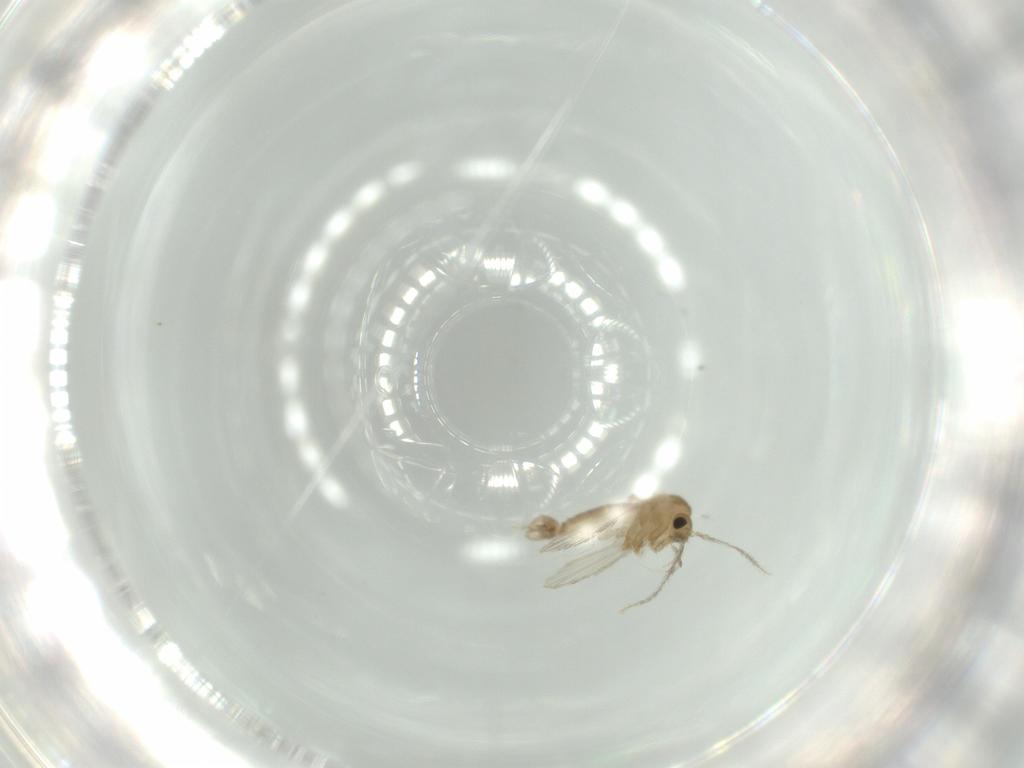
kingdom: Animalia
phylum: Arthropoda
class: Insecta
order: Diptera
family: Psychodidae
